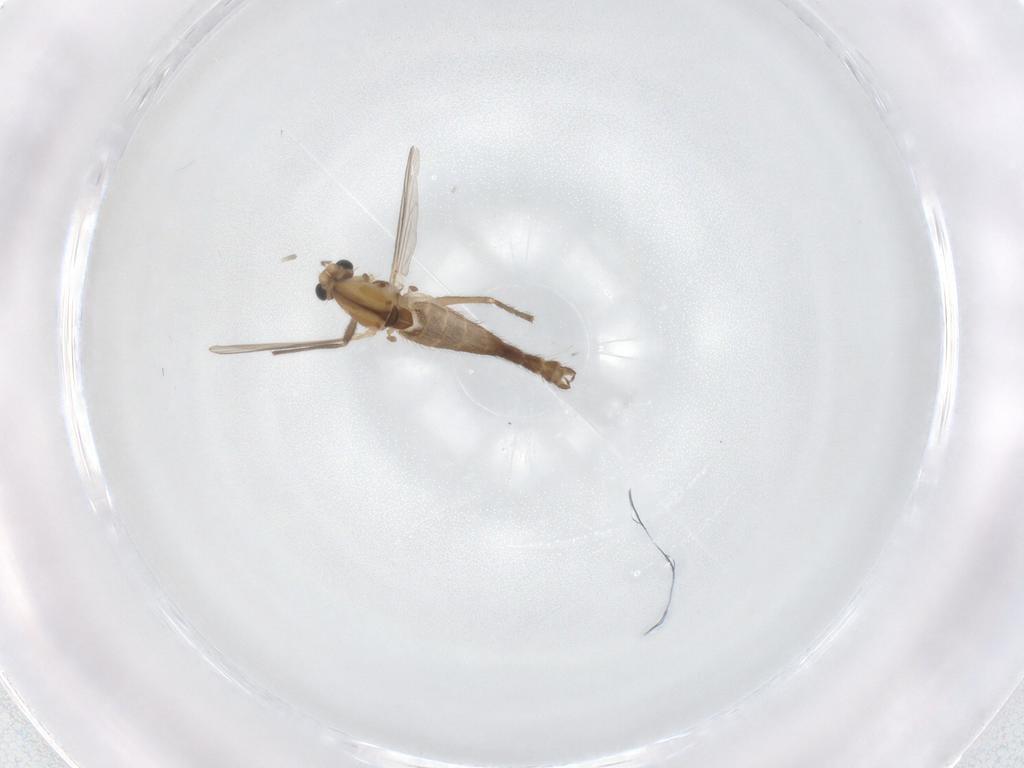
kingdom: Animalia
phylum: Arthropoda
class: Insecta
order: Diptera
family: Chironomidae
